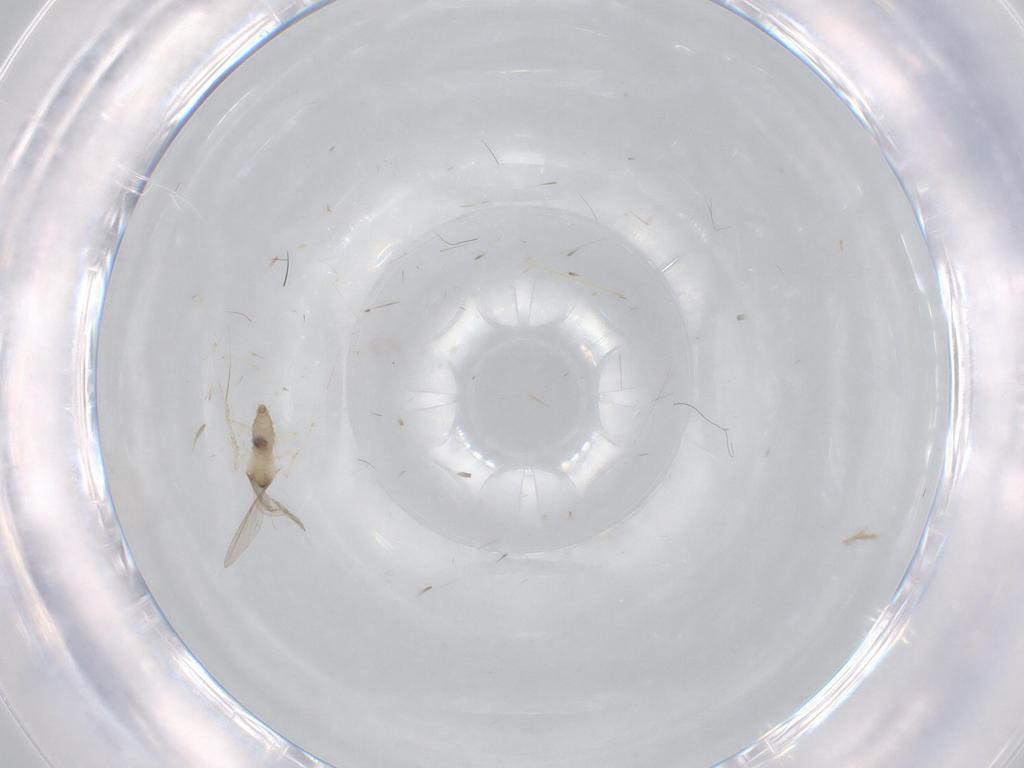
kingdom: Animalia
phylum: Arthropoda
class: Insecta
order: Diptera
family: Cecidomyiidae
